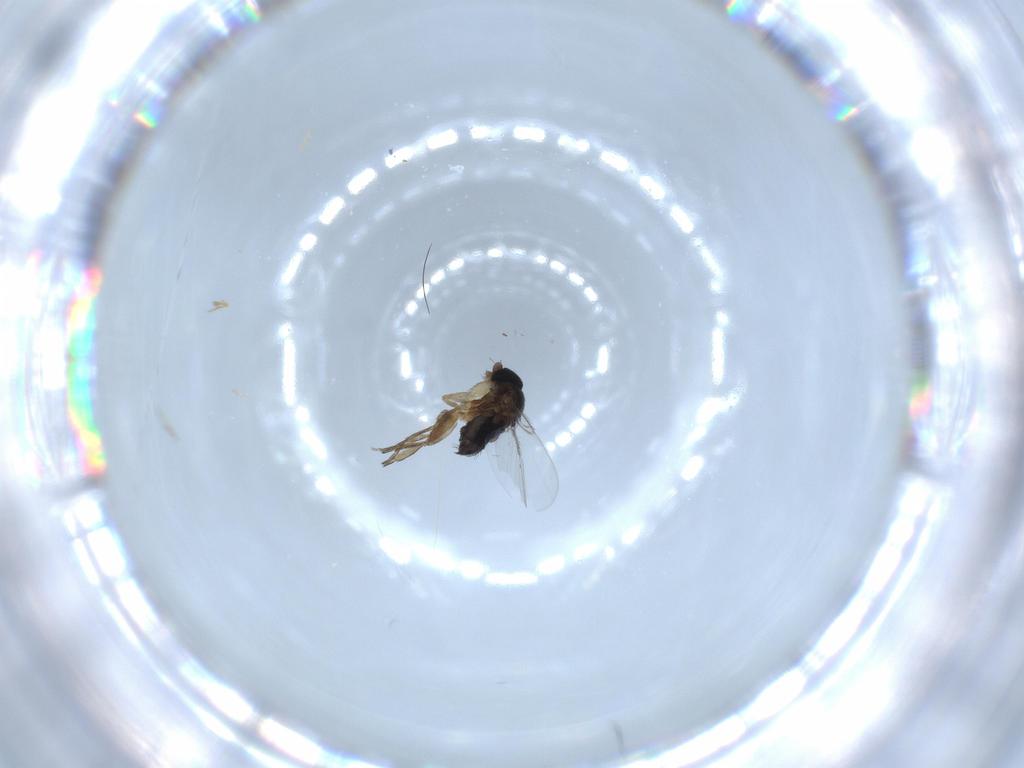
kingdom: Animalia
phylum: Arthropoda
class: Insecta
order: Diptera
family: Phoridae
